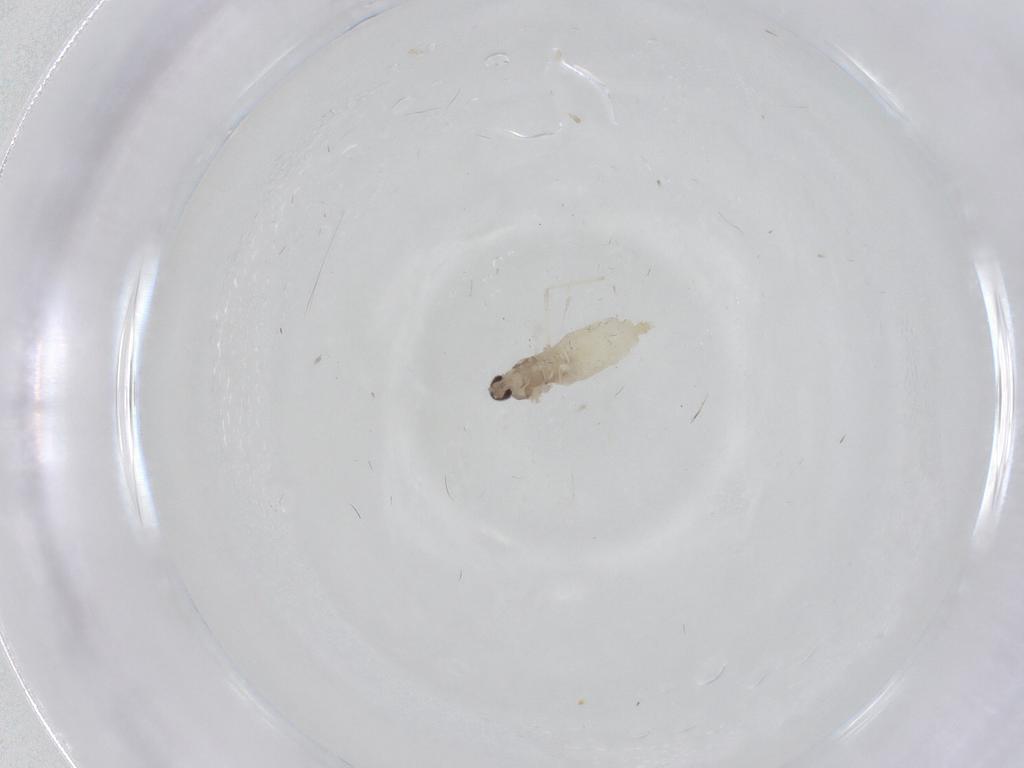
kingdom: Animalia
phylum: Arthropoda
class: Insecta
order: Diptera
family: Cecidomyiidae
